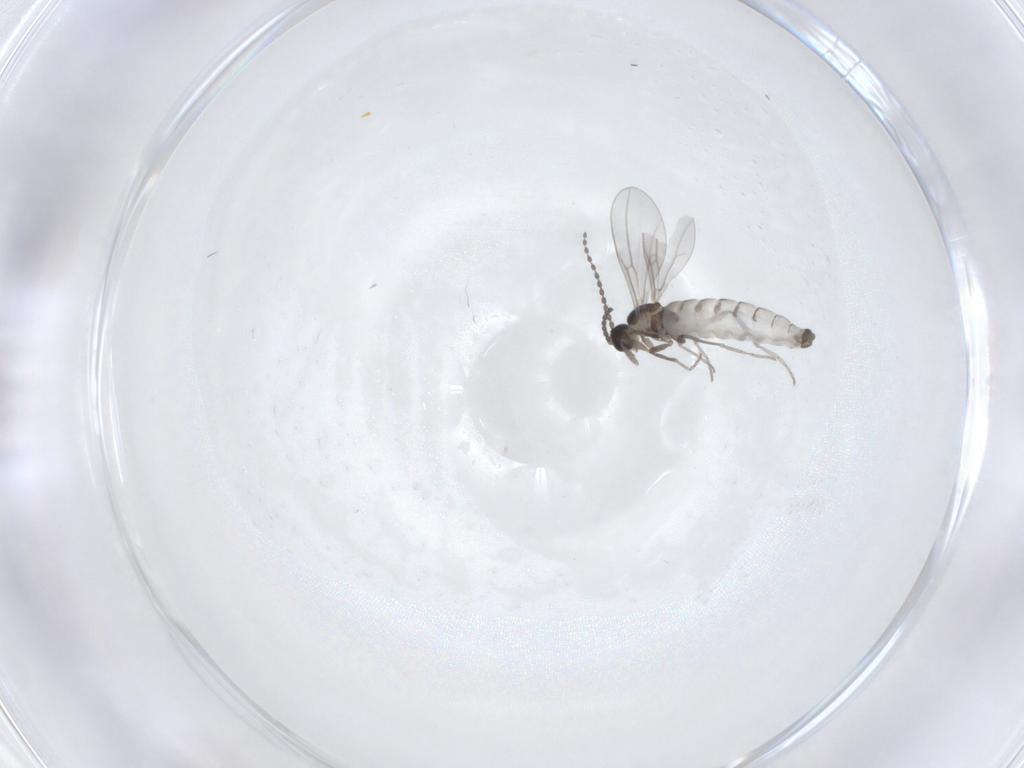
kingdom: Animalia
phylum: Arthropoda
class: Insecta
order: Diptera
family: Cecidomyiidae
